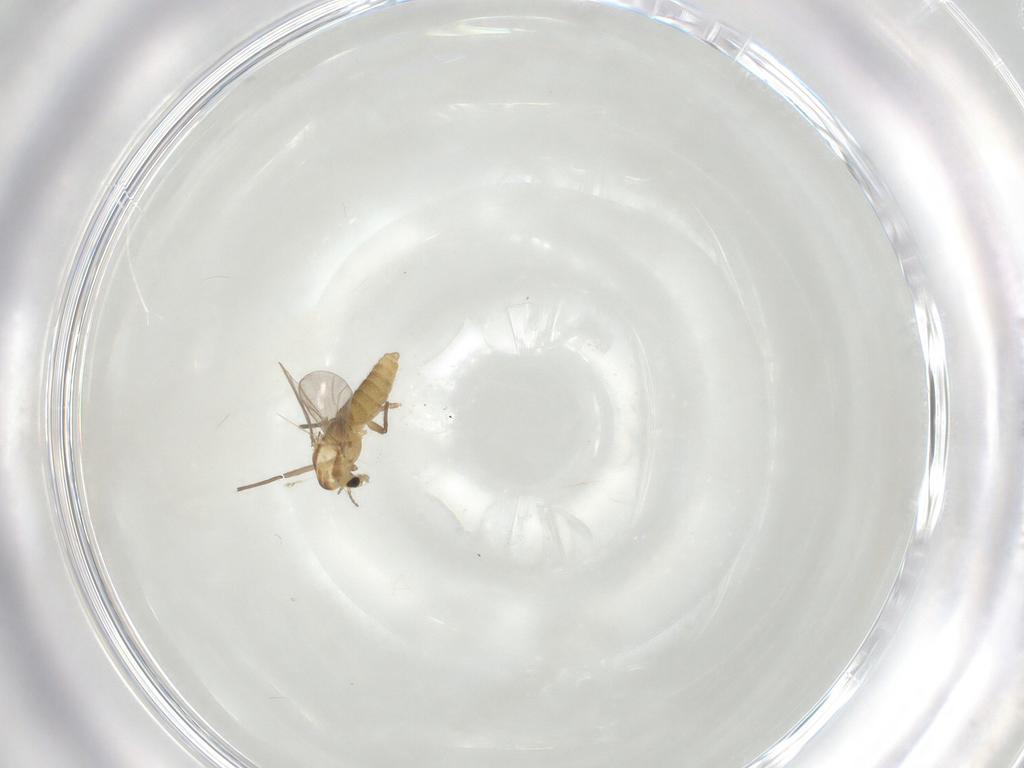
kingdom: Animalia
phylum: Arthropoda
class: Insecta
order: Diptera
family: Chironomidae
